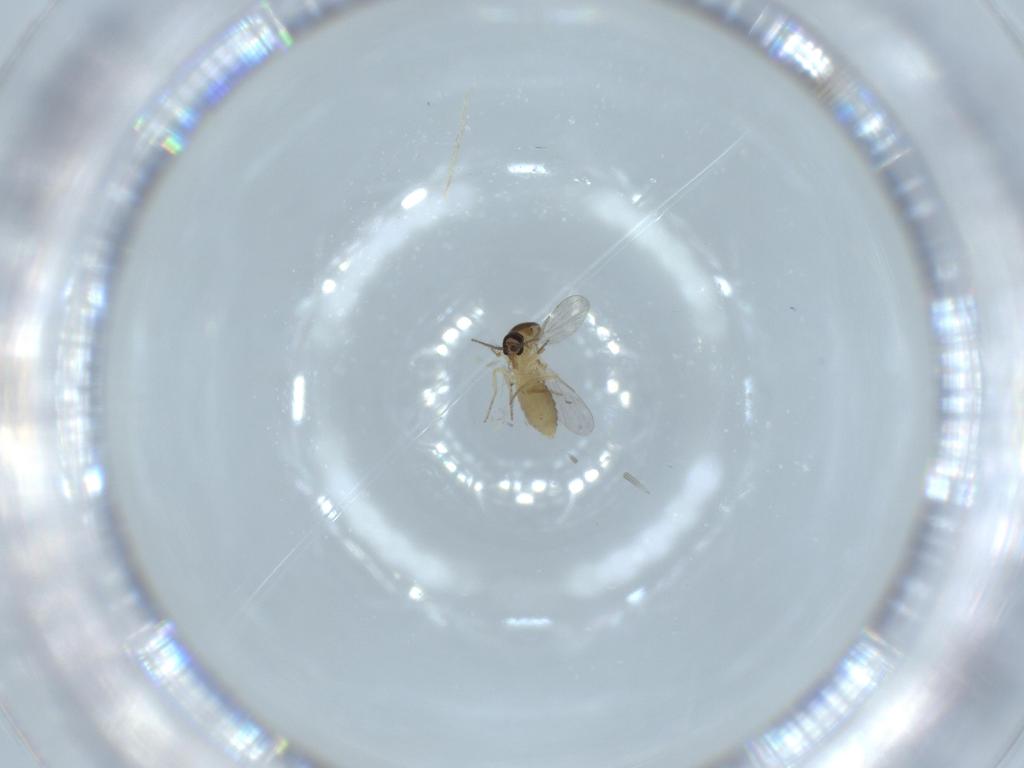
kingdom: Animalia
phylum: Arthropoda
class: Insecta
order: Diptera
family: Ceratopogonidae
